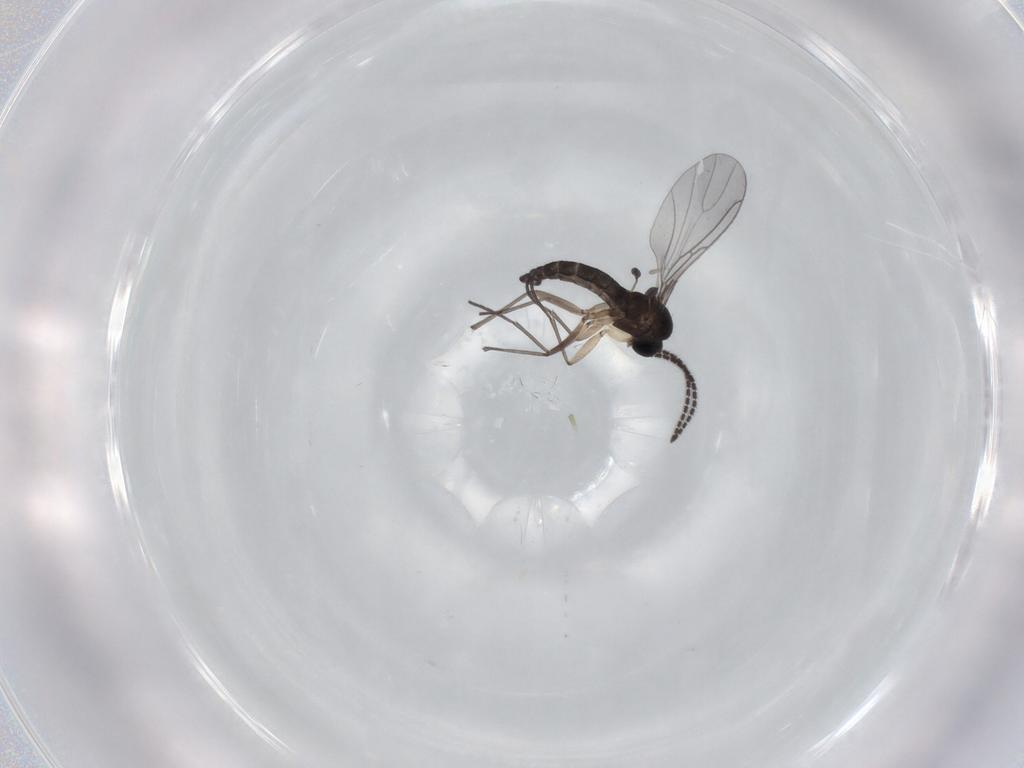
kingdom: Animalia
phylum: Arthropoda
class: Insecta
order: Diptera
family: Sciaridae
